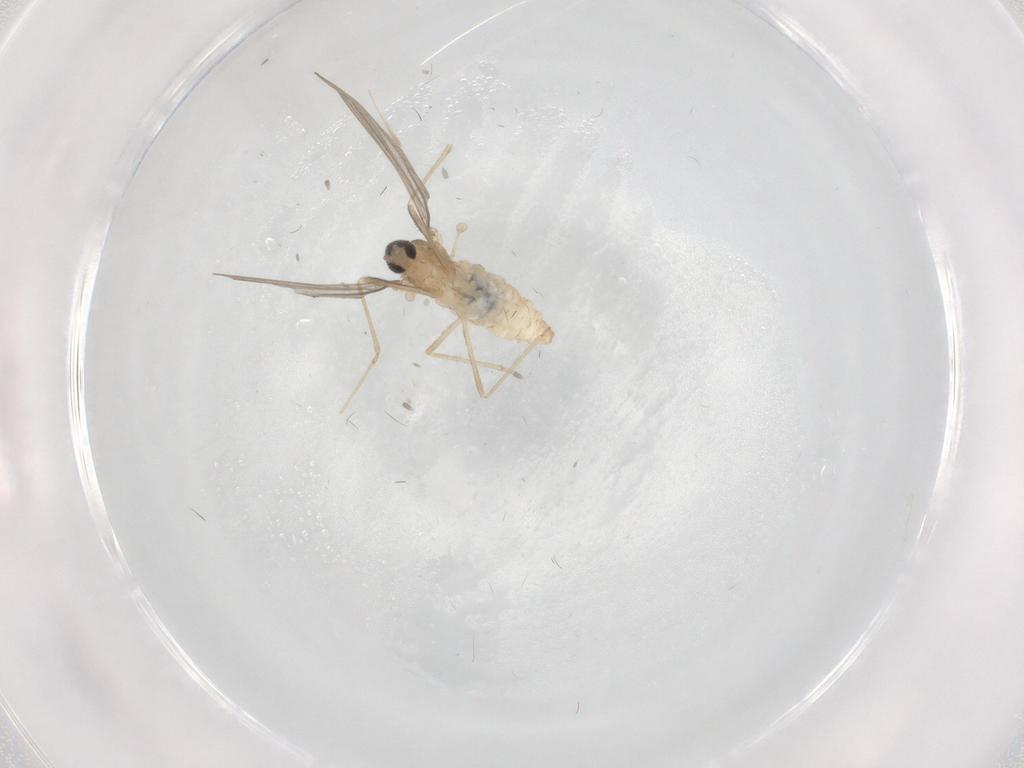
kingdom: Animalia
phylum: Arthropoda
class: Insecta
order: Diptera
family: Psychodidae
